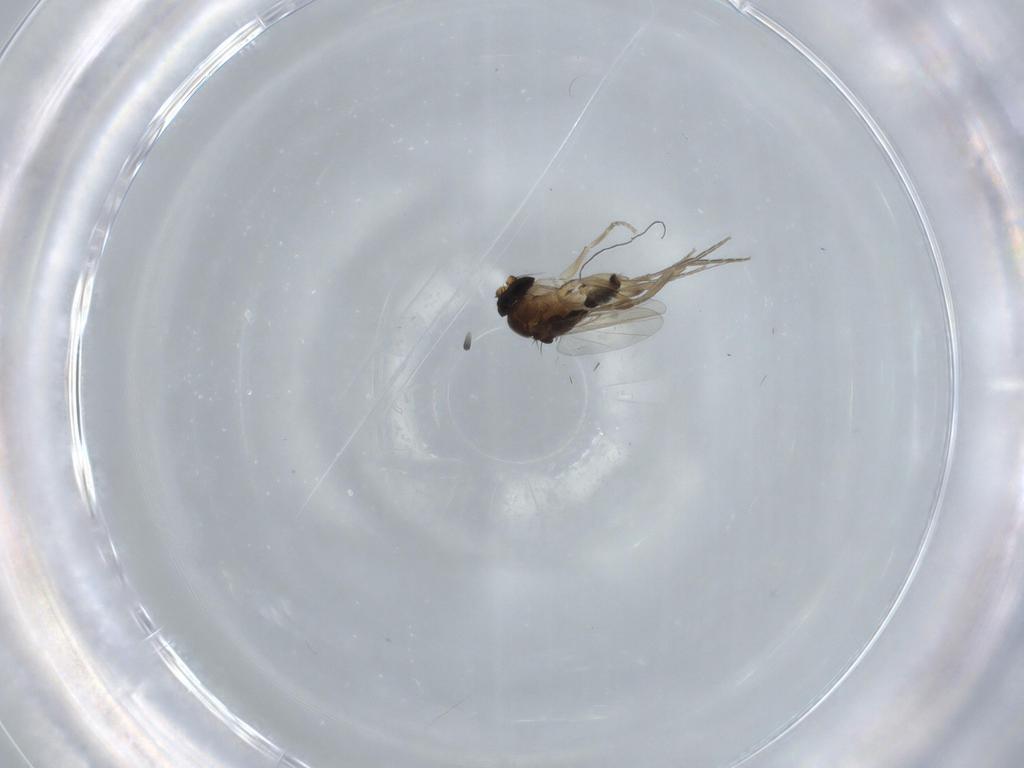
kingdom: Animalia
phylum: Arthropoda
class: Insecta
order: Diptera
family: Phoridae
